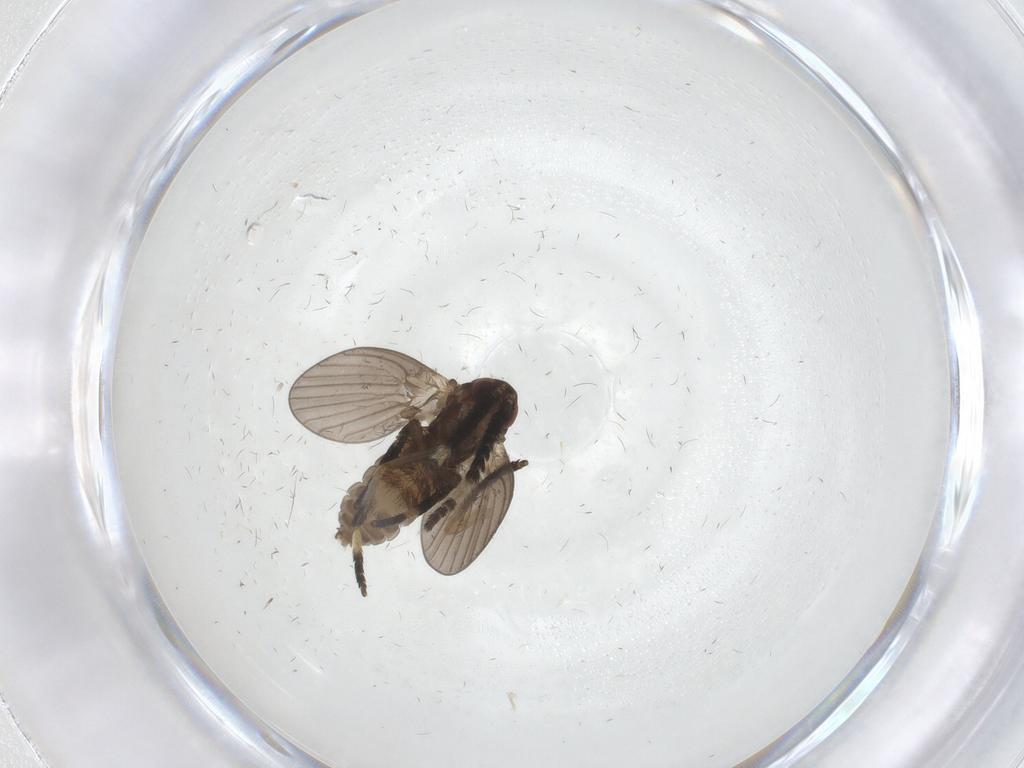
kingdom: Animalia
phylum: Arthropoda
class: Insecta
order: Diptera
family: Psychodidae
